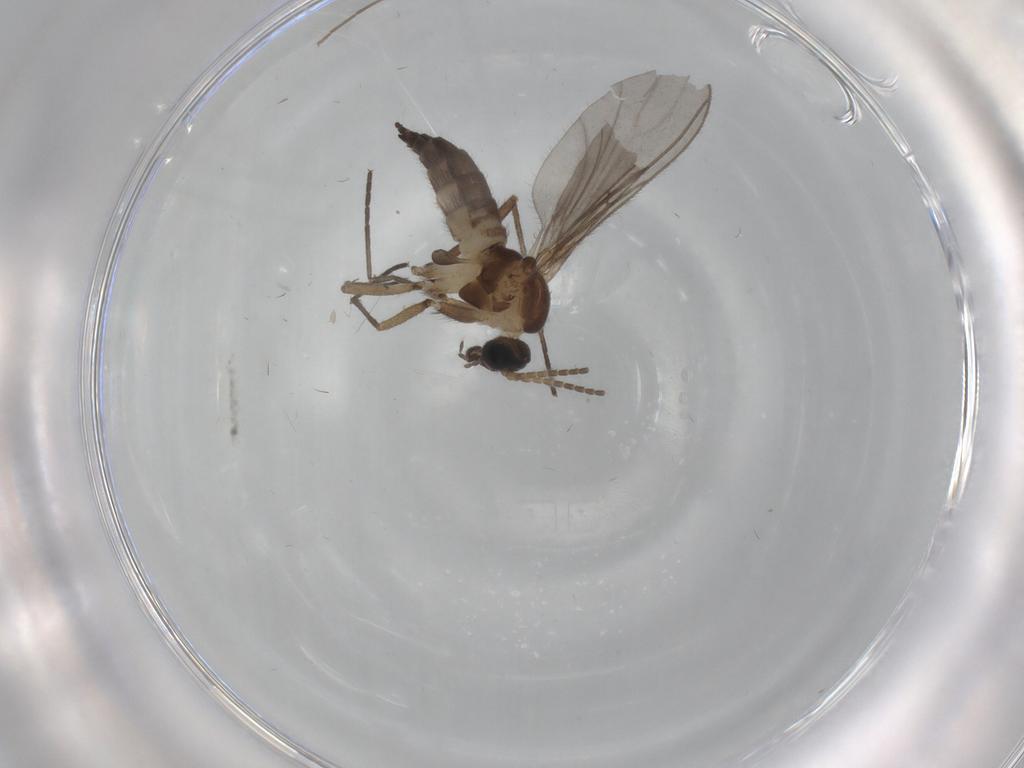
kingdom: Animalia
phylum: Arthropoda
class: Insecta
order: Diptera
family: Sciaridae
